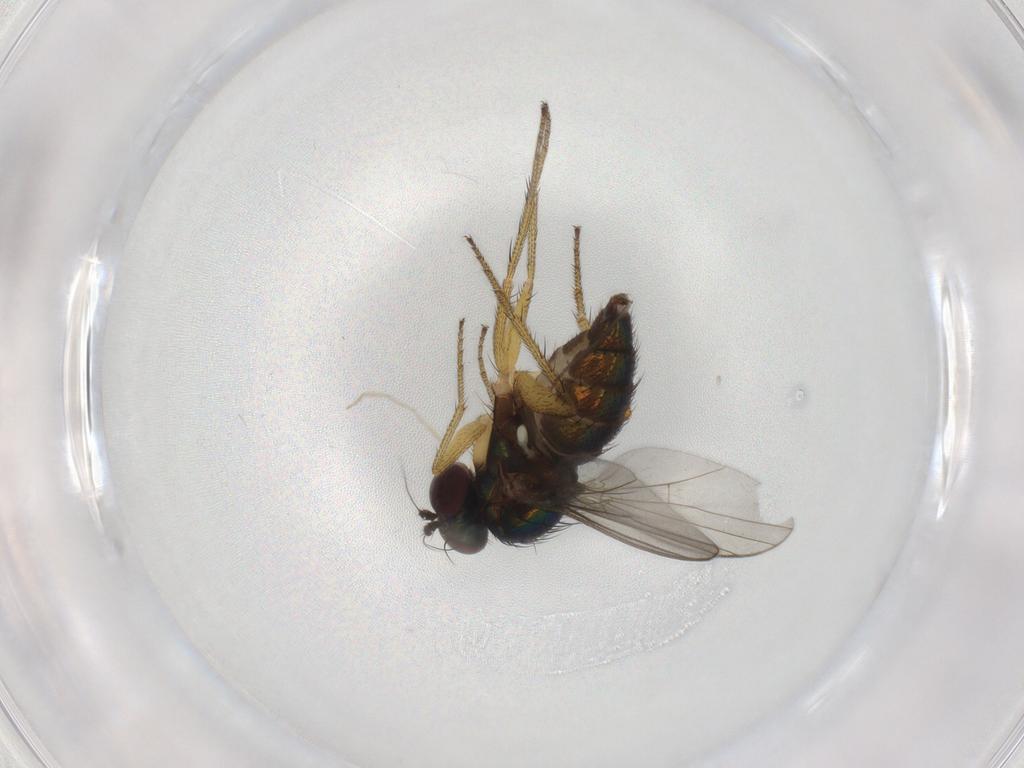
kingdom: Animalia
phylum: Arthropoda
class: Insecta
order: Diptera
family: Chironomidae
